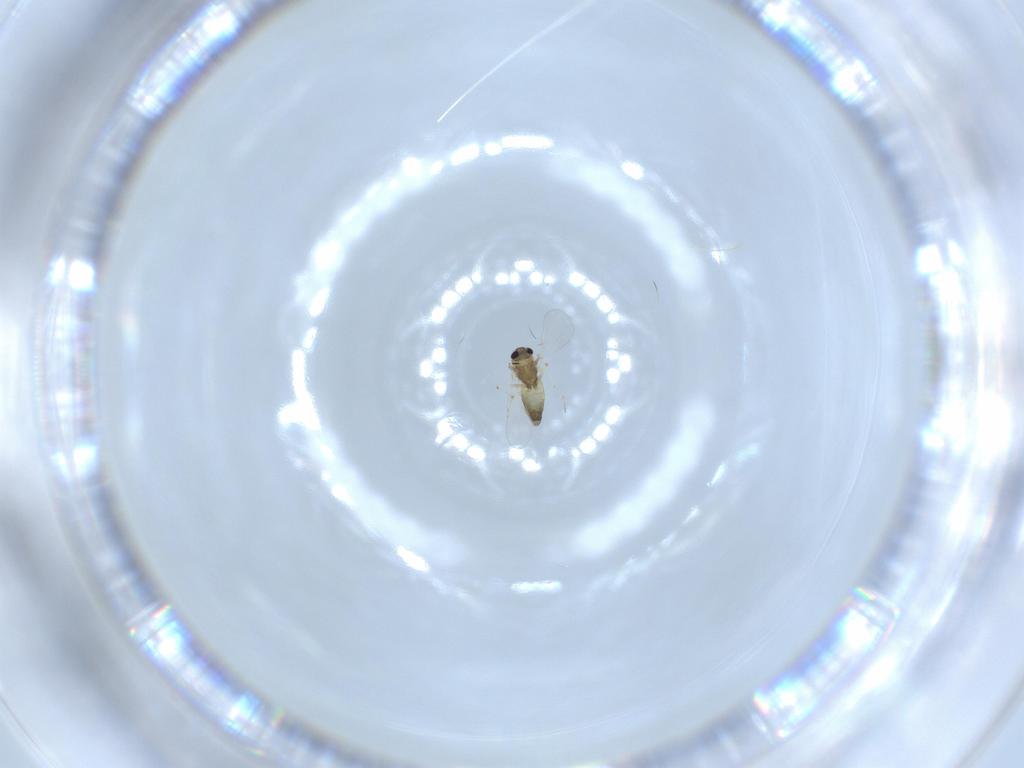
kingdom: Animalia
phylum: Arthropoda
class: Insecta
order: Diptera
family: Chironomidae
